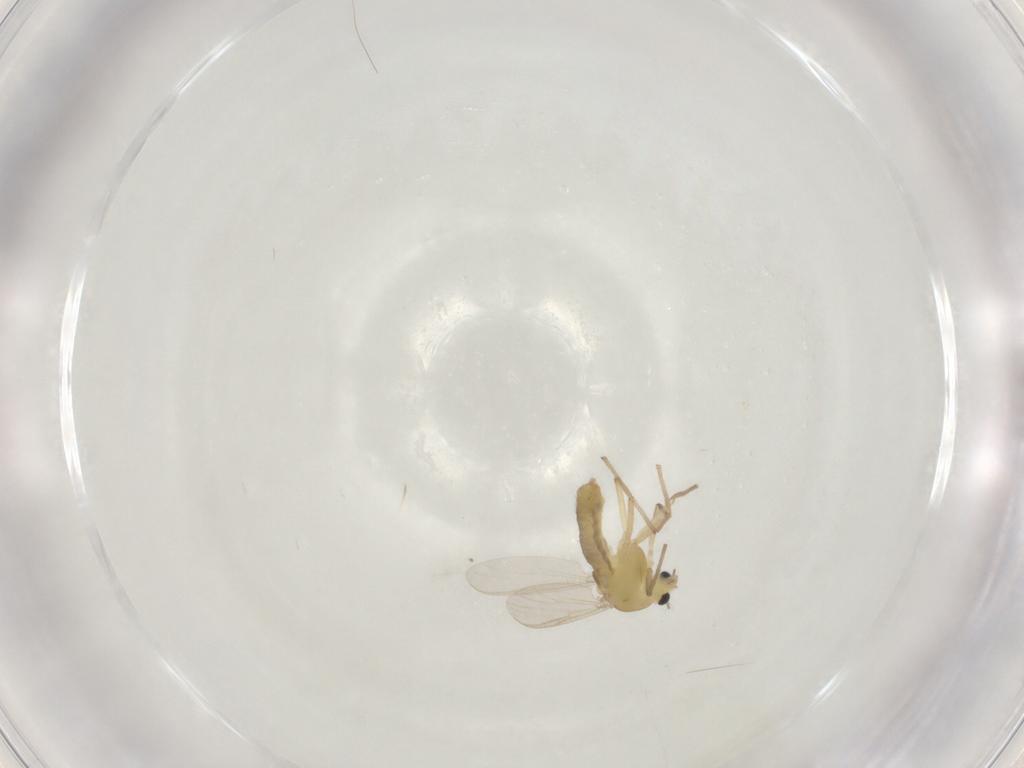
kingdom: Animalia
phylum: Arthropoda
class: Insecta
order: Diptera
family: Chironomidae
